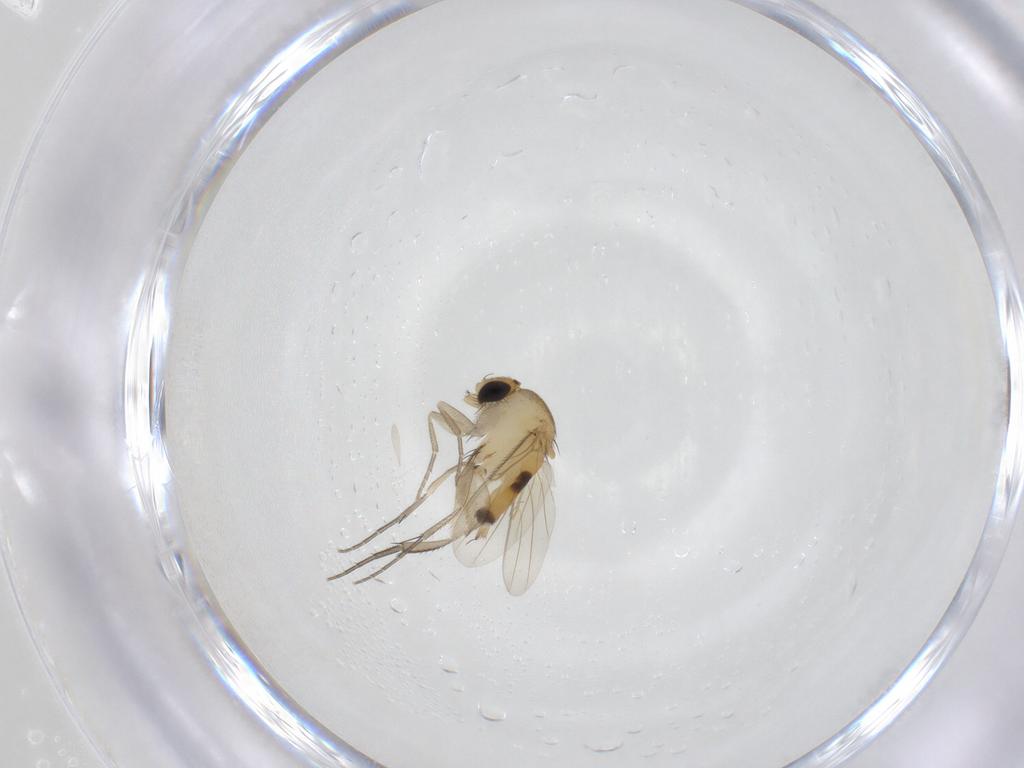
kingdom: Animalia
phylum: Arthropoda
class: Insecta
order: Diptera
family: Phoridae
